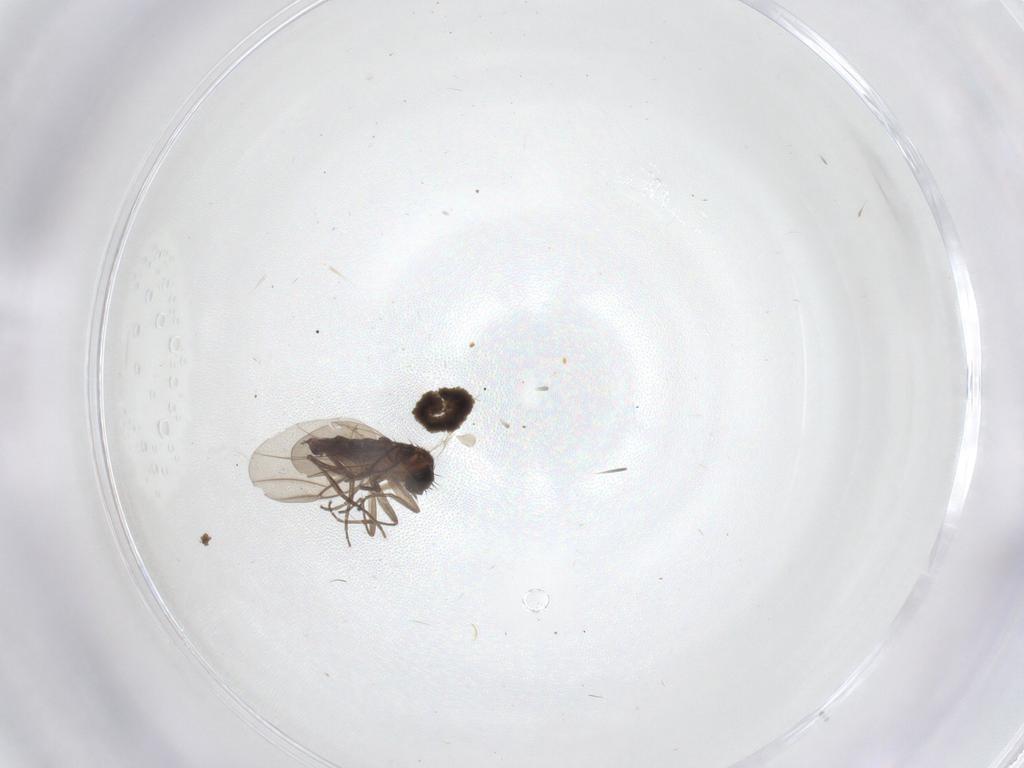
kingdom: Animalia
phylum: Arthropoda
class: Insecta
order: Diptera
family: Cecidomyiidae
